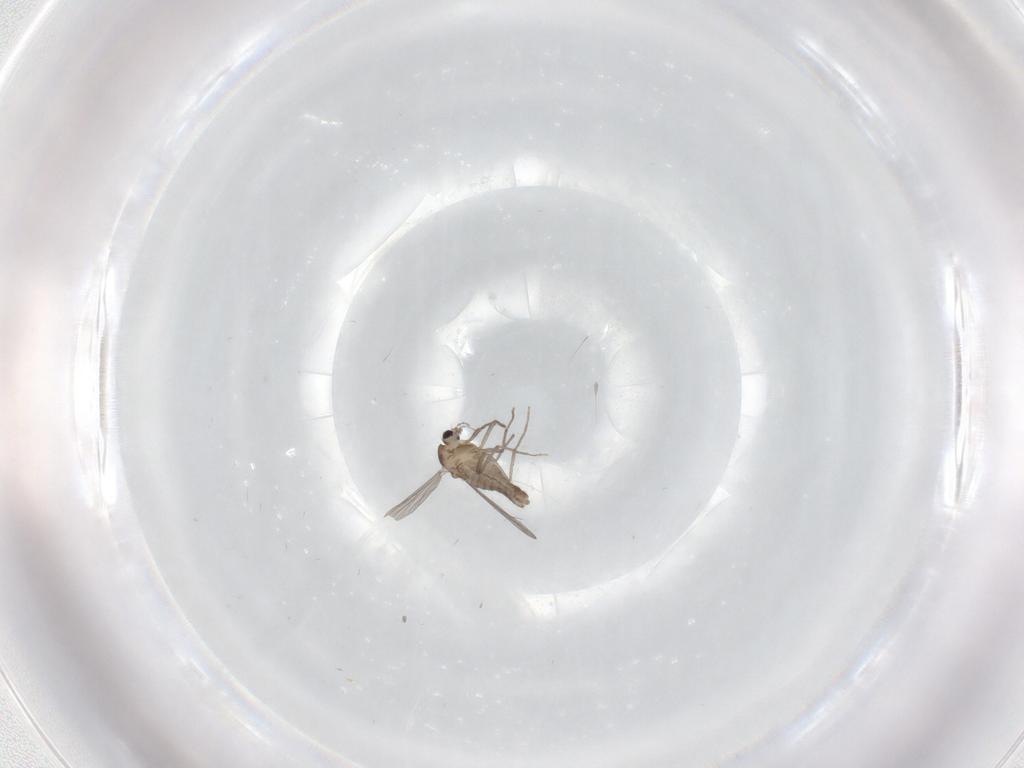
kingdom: Animalia
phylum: Arthropoda
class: Insecta
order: Diptera
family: Chironomidae
